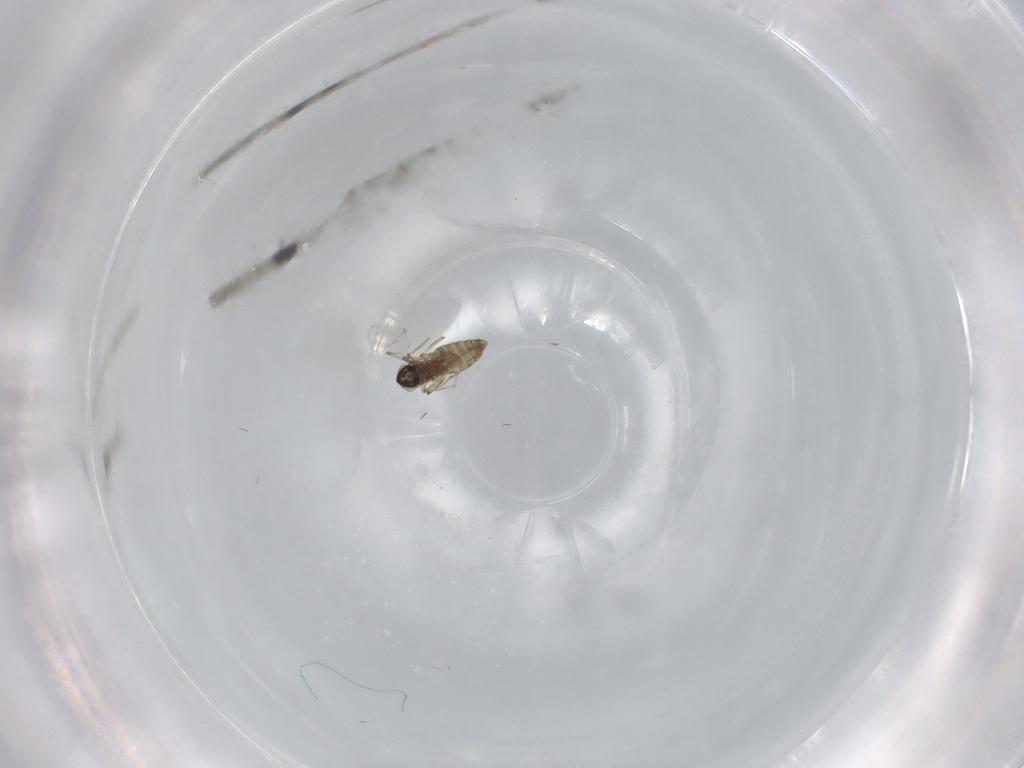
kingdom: Animalia
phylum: Arthropoda
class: Insecta
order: Diptera
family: Ceratopogonidae
